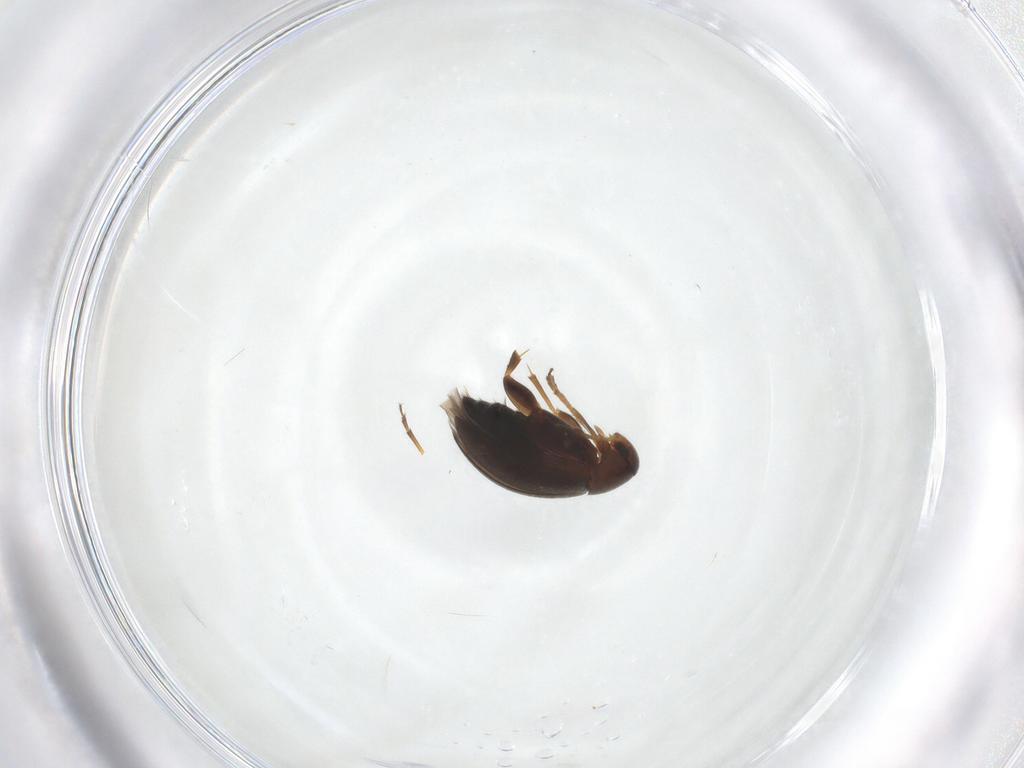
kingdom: Animalia
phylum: Arthropoda
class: Insecta
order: Coleoptera
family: Scraptiidae
